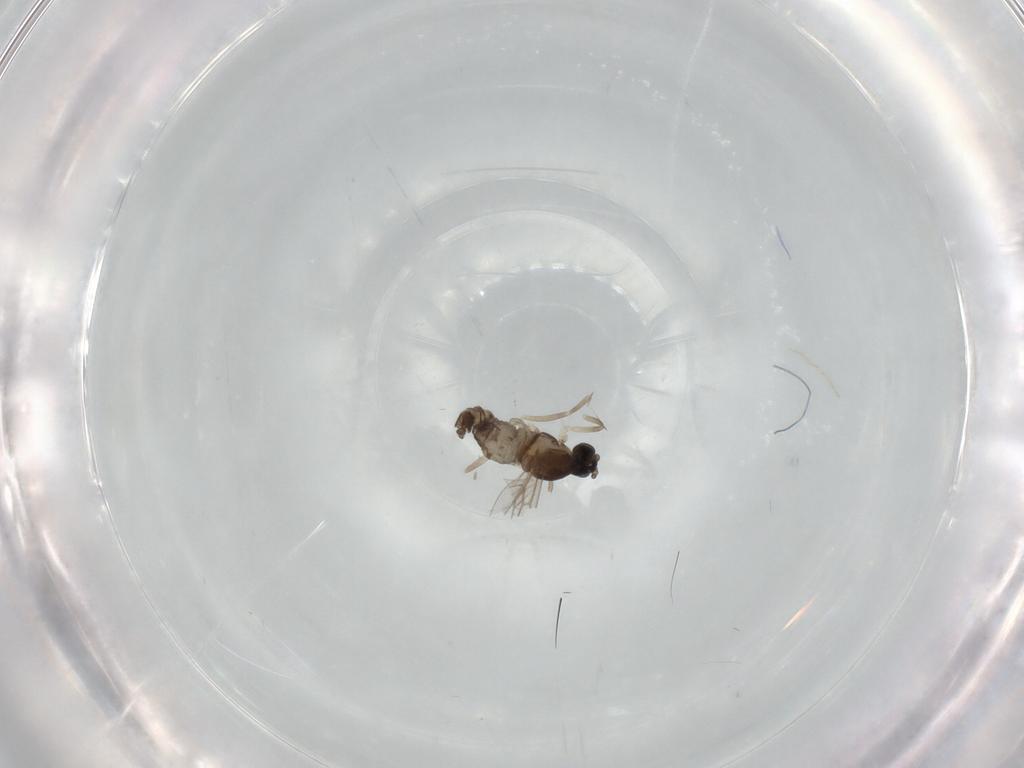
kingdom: Animalia
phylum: Arthropoda
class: Insecta
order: Diptera
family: Cecidomyiidae
